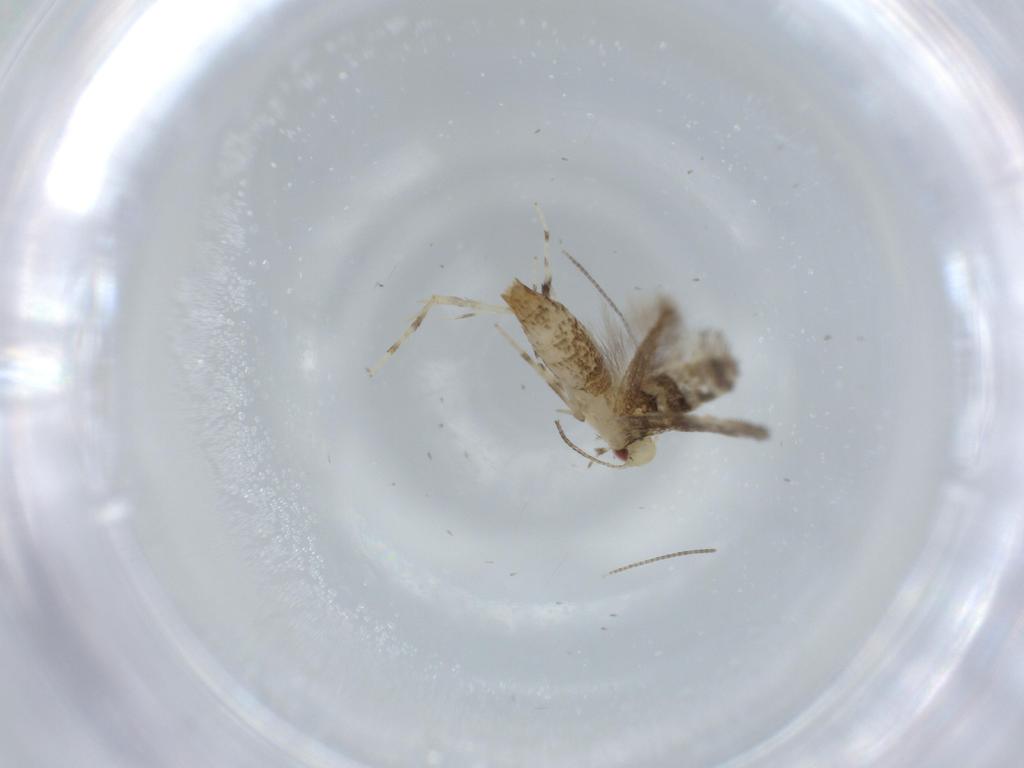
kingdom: Animalia
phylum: Arthropoda
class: Insecta
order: Lepidoptera
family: Gracillariidae
